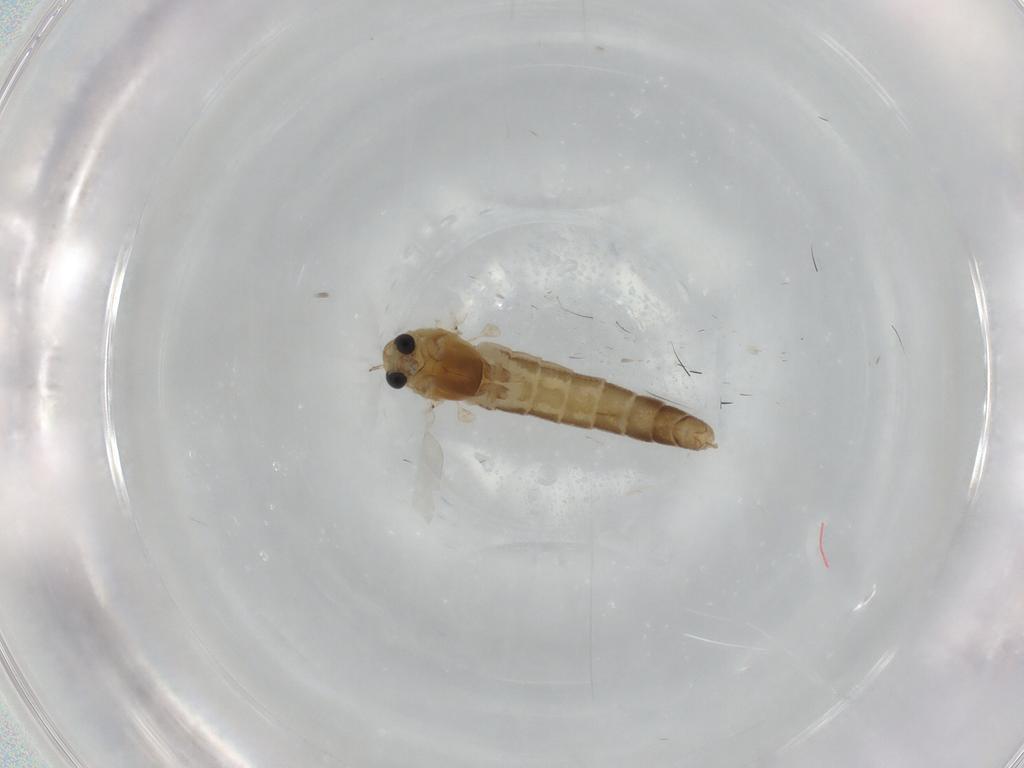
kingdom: Animalia
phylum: Arthropoda
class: Insecta
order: Diptera
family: Chironomidae
